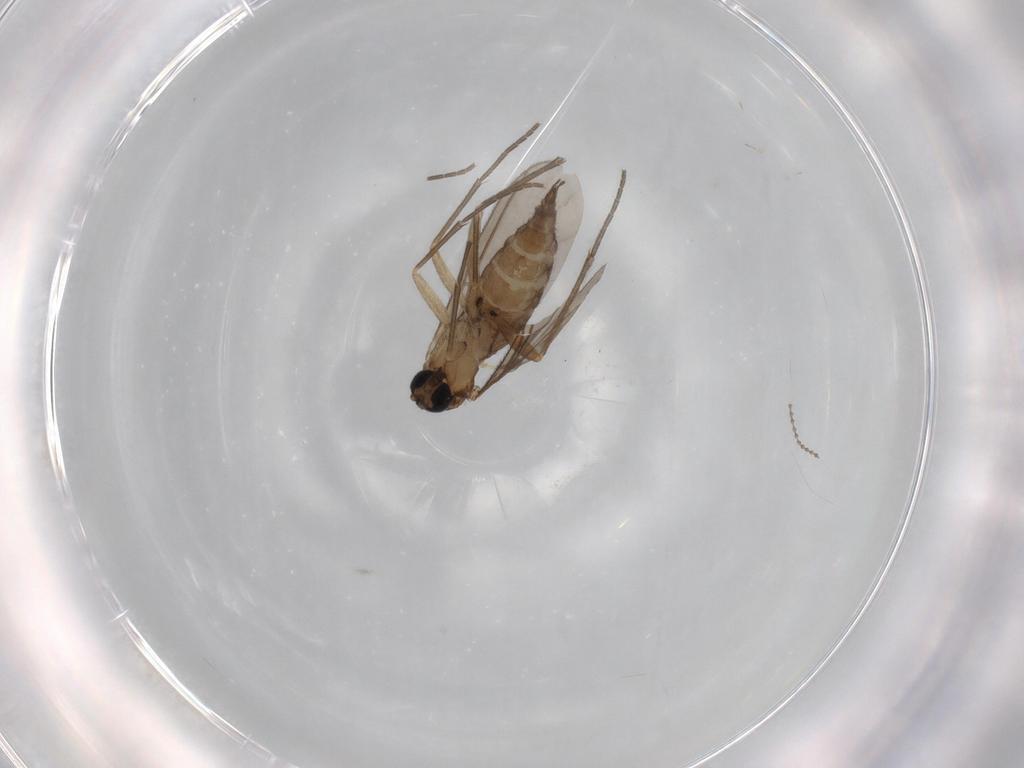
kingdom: Animalia
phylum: Arthropoda
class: Insecta
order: Diptera
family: Sciaridae
